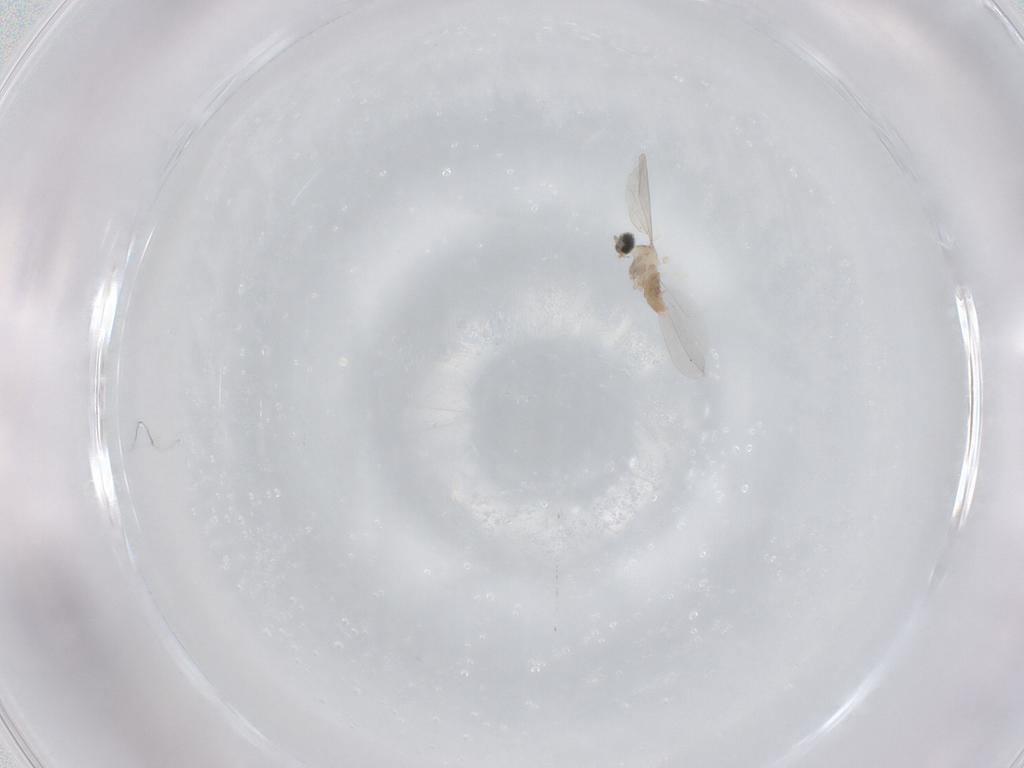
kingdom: Animalia
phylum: Arthropoda
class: Insecta
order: Diptera
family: Cecidomyiidae
